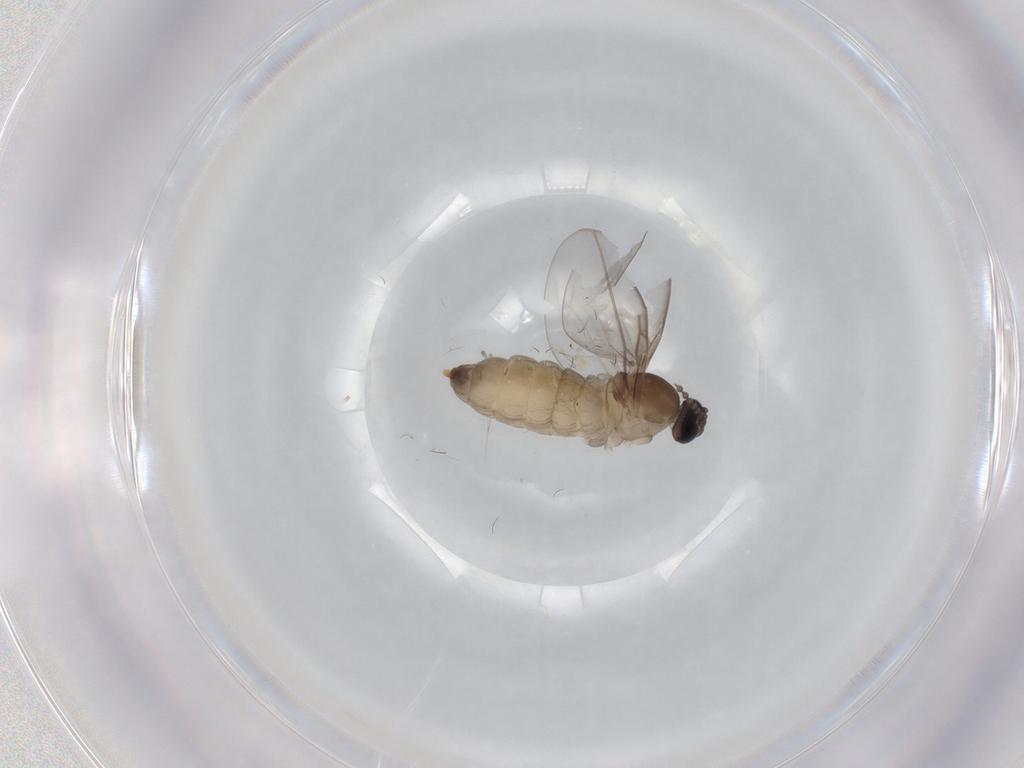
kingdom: Animalia
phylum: Arthropoda
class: Insecta
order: Diptera
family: Cecidomyiidae
